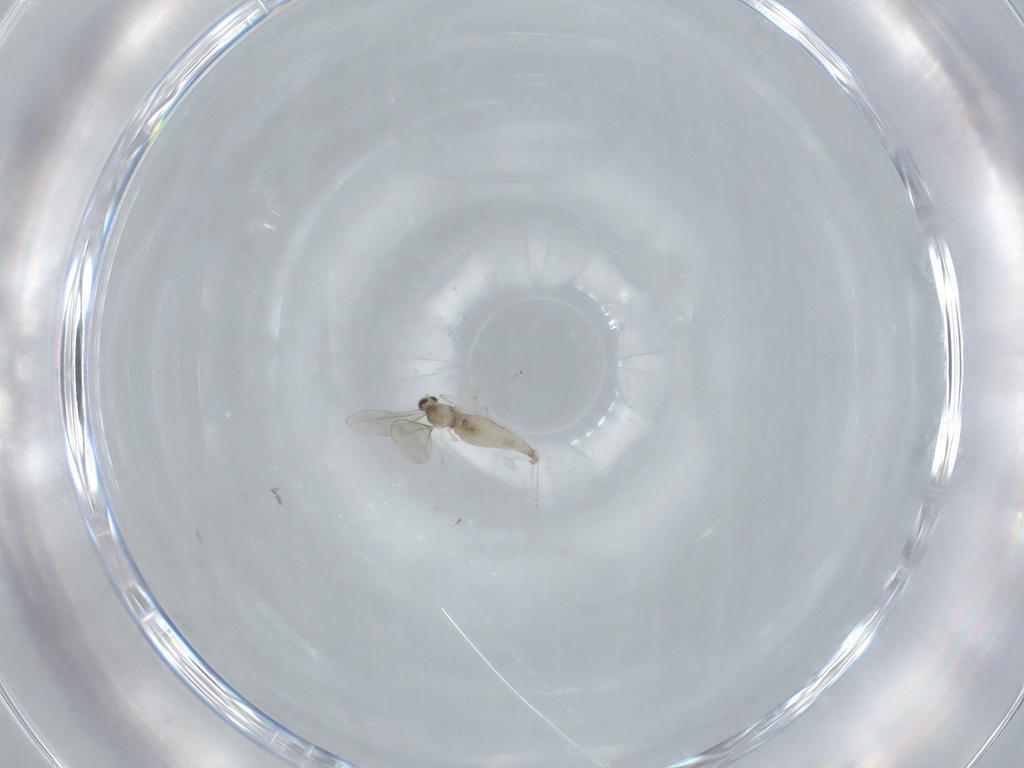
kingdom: Animalia
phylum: Arthropoda
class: Insecta
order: Diptera
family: Cecidomyiidae
